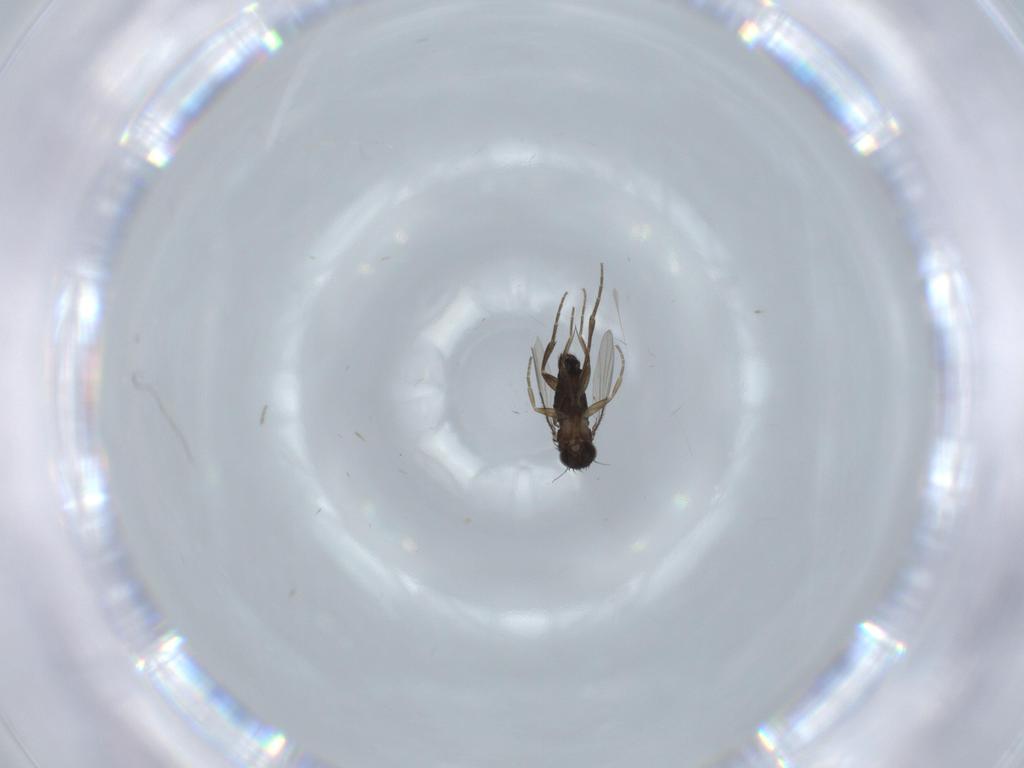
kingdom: Animalia
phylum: Arthropoda
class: Insecta
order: Diptera
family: Phoridae
